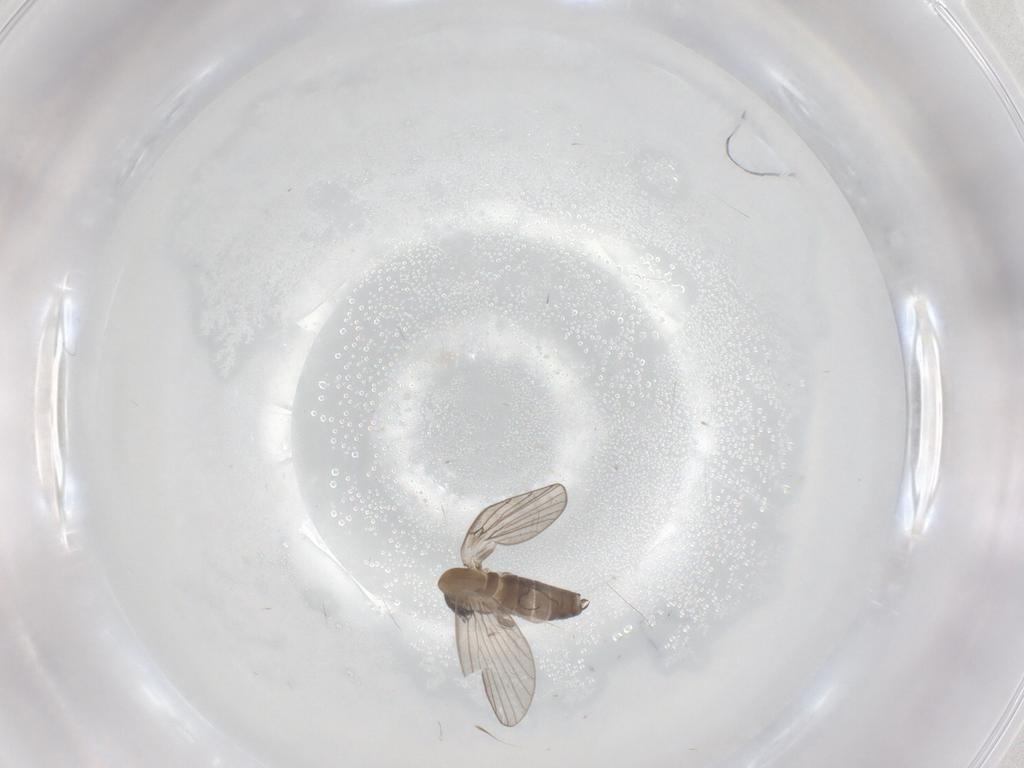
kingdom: Animalia
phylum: Arthropoda
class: Insecta
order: Diptera
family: Psychodidae
